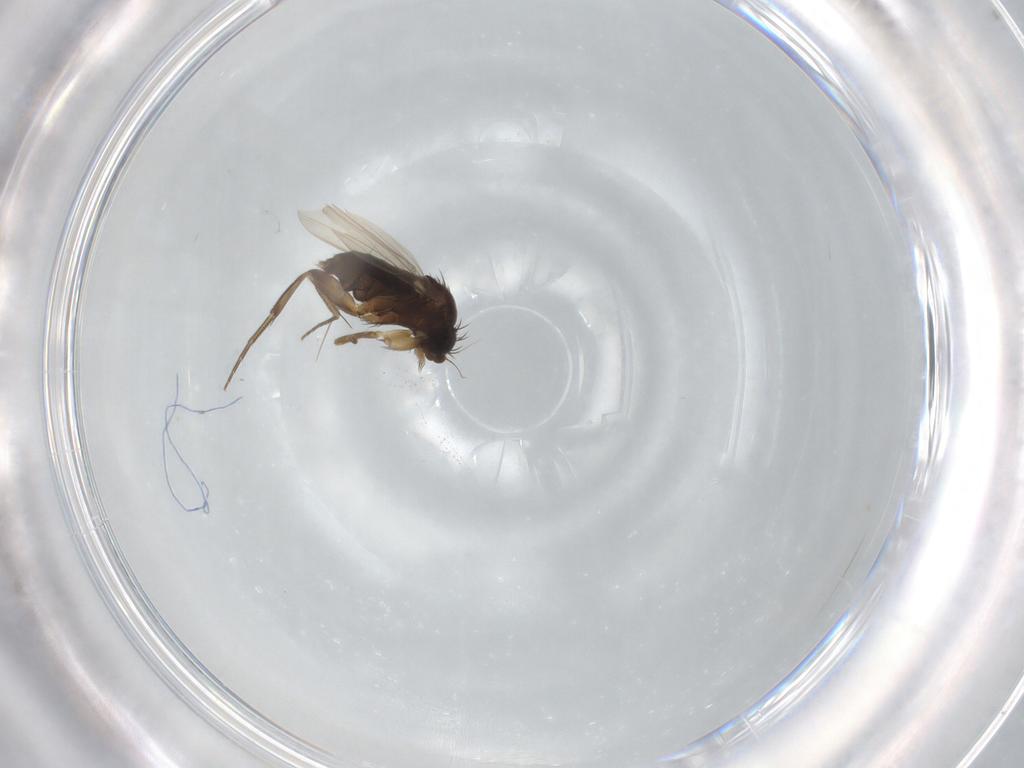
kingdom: Animalia
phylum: Arthropoda
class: Insecta
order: Diptera
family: Phoridae
